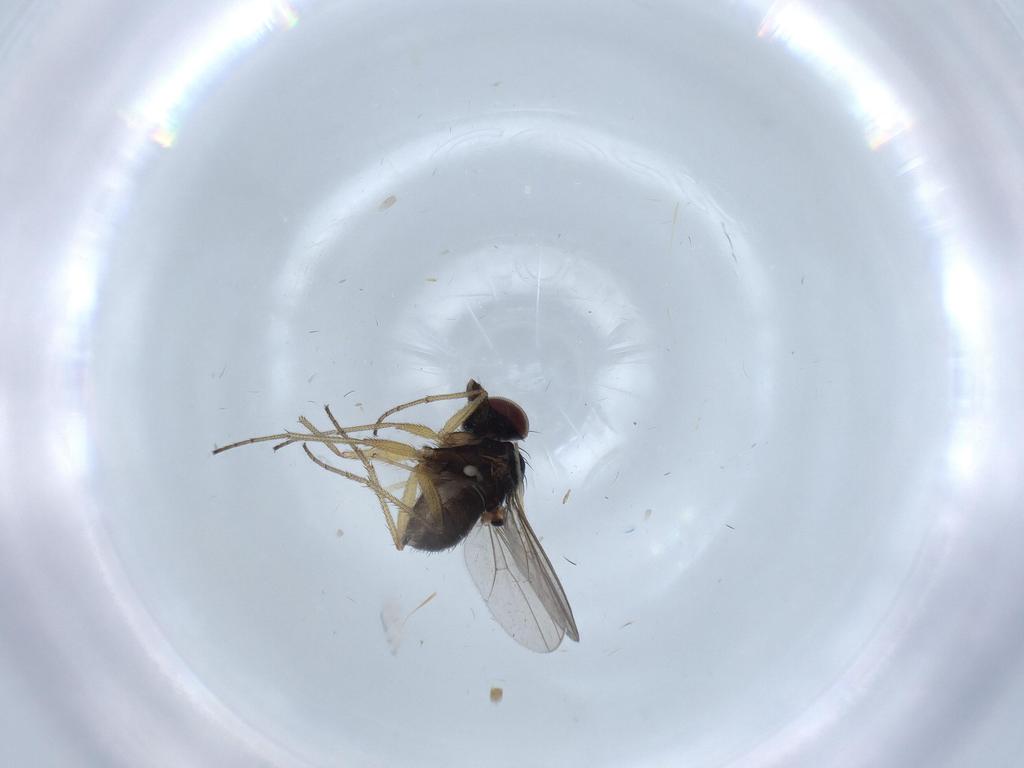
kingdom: Animalia
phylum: Arthropoda
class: Insecta
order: Diptera
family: Dolichopodidae
